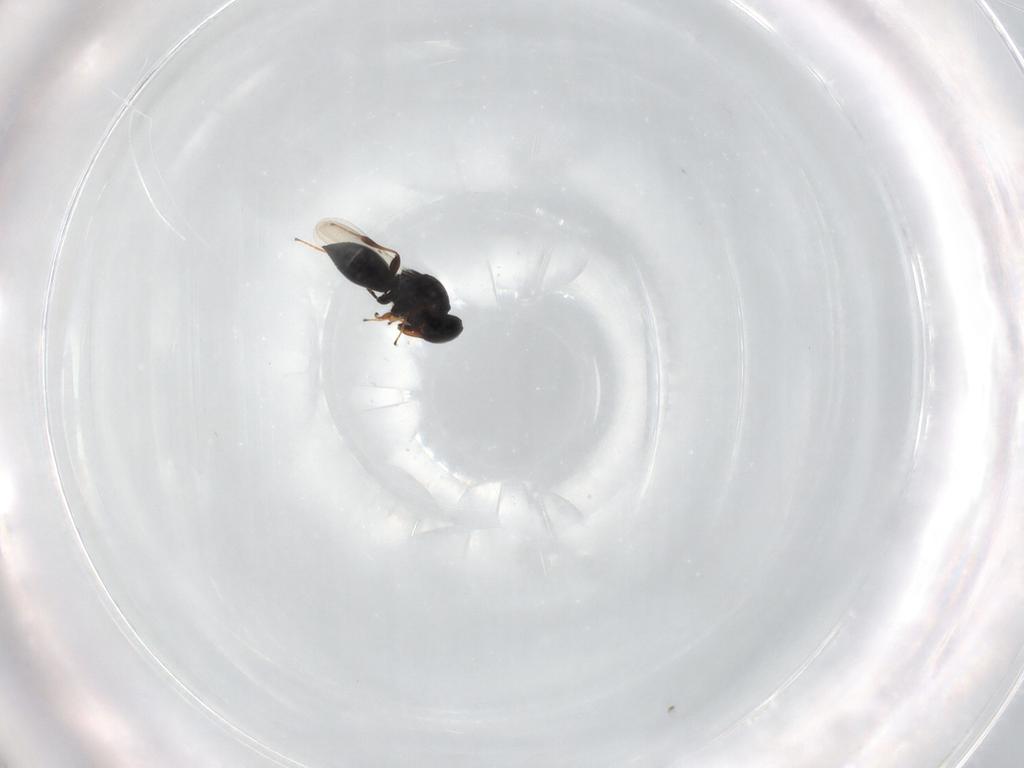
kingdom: Animalia
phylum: Arthropoda
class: Insecta
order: Hymenoptera
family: Platygastridae
